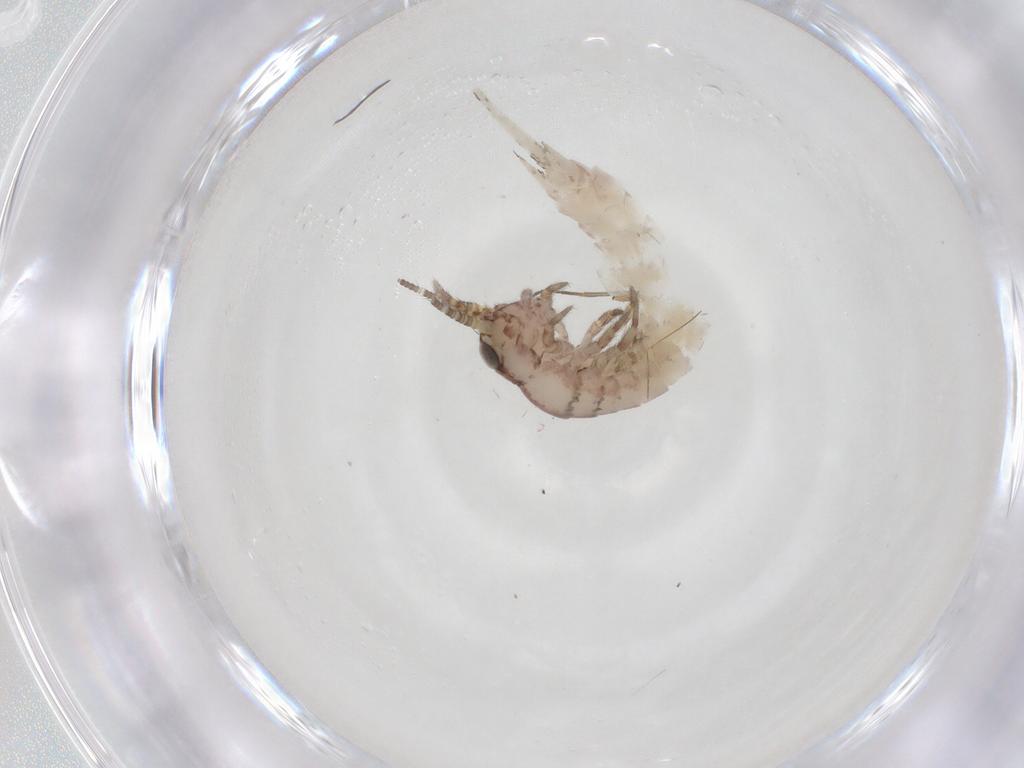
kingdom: Animalia
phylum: Arthropoda
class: Insecta
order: Archaeognatha
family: Meinertellidae
